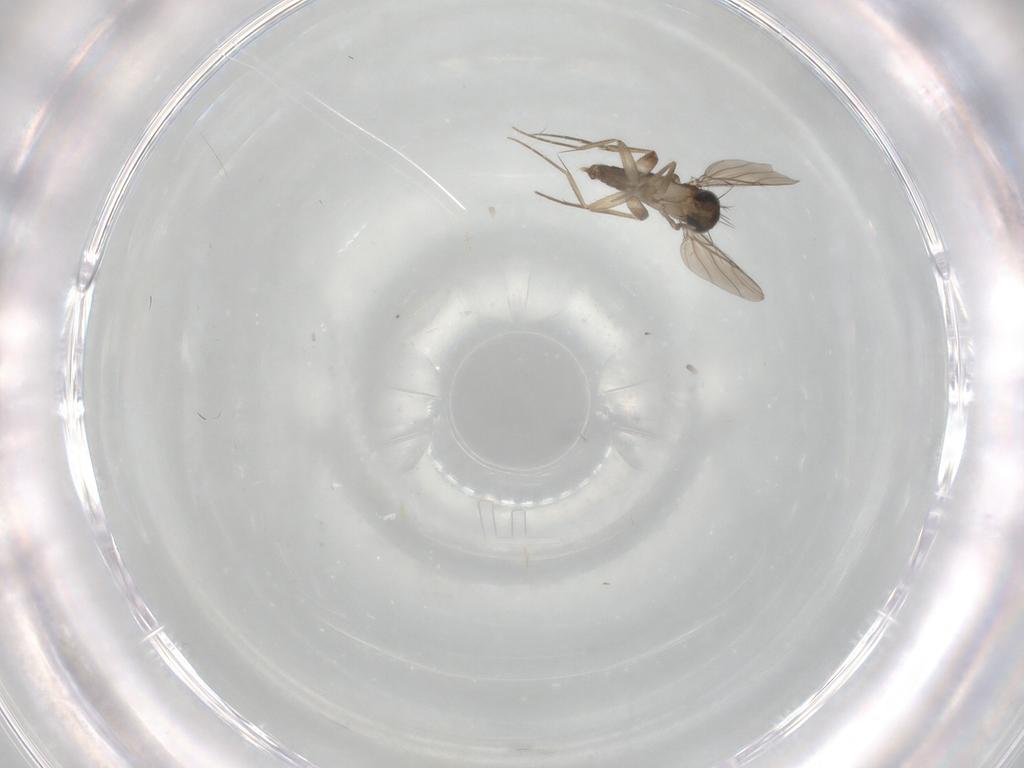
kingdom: Animalia
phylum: Arthropoda
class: Insecta
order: Diptera
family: Phoridae
